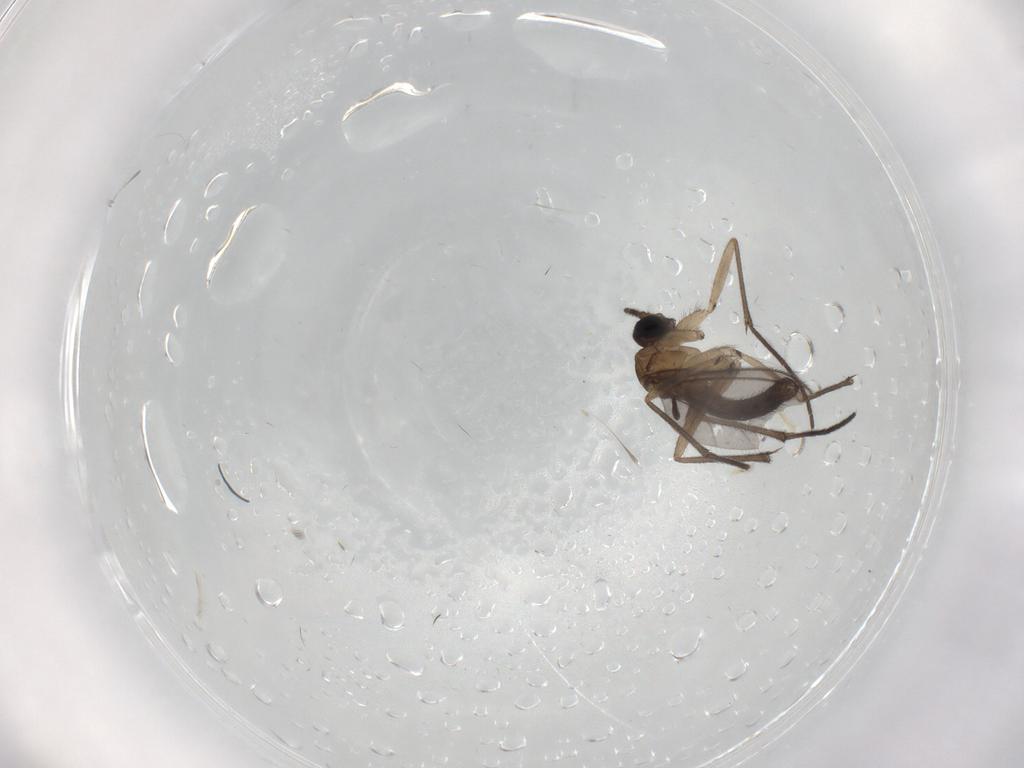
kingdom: Animalia
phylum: Arthropoda
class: Insecta
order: Diptera
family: Sciaridae
